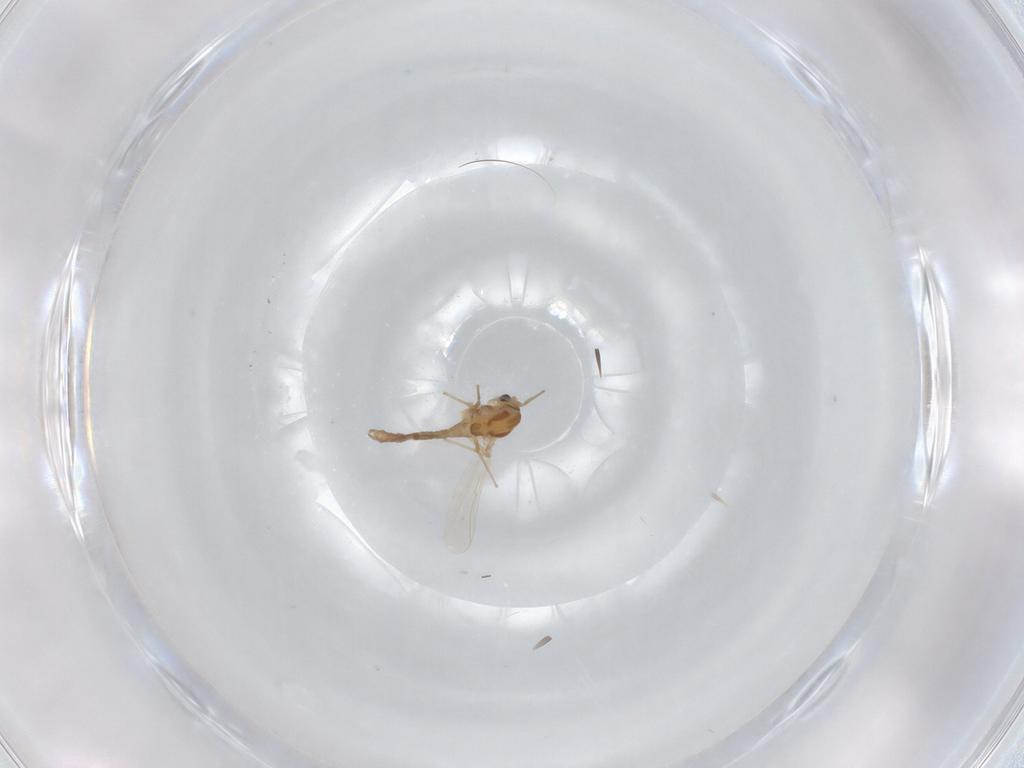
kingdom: Animalia
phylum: Arthropoda
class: Insecta
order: Diptera
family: Chironomidae
